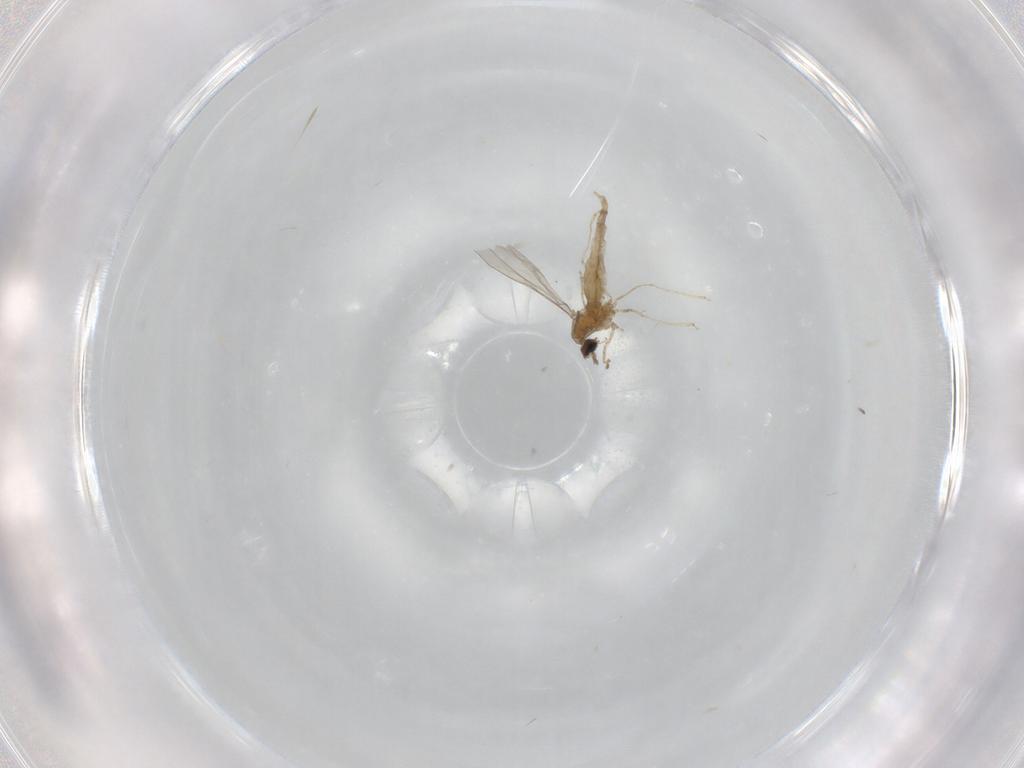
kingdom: Animalia
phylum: Arthropoda
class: Insecta
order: Diptera
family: Cecidomyiidae
